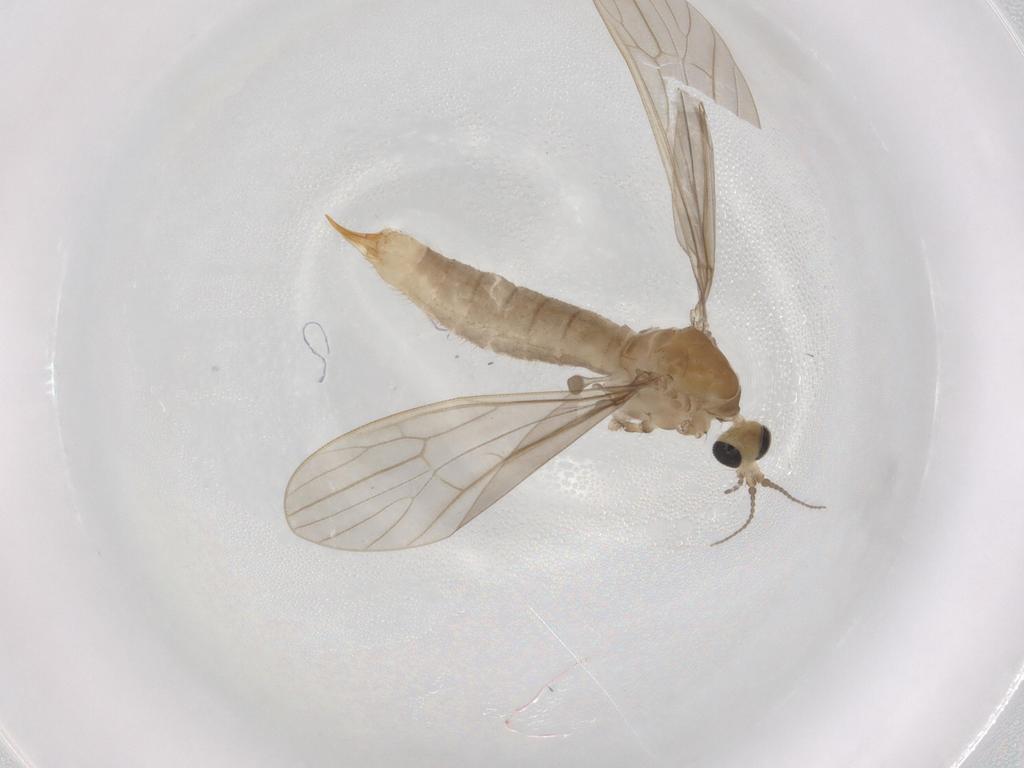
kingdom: Animalia
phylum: Arthropoda
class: Insecta
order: Diptera
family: Limoniidae
